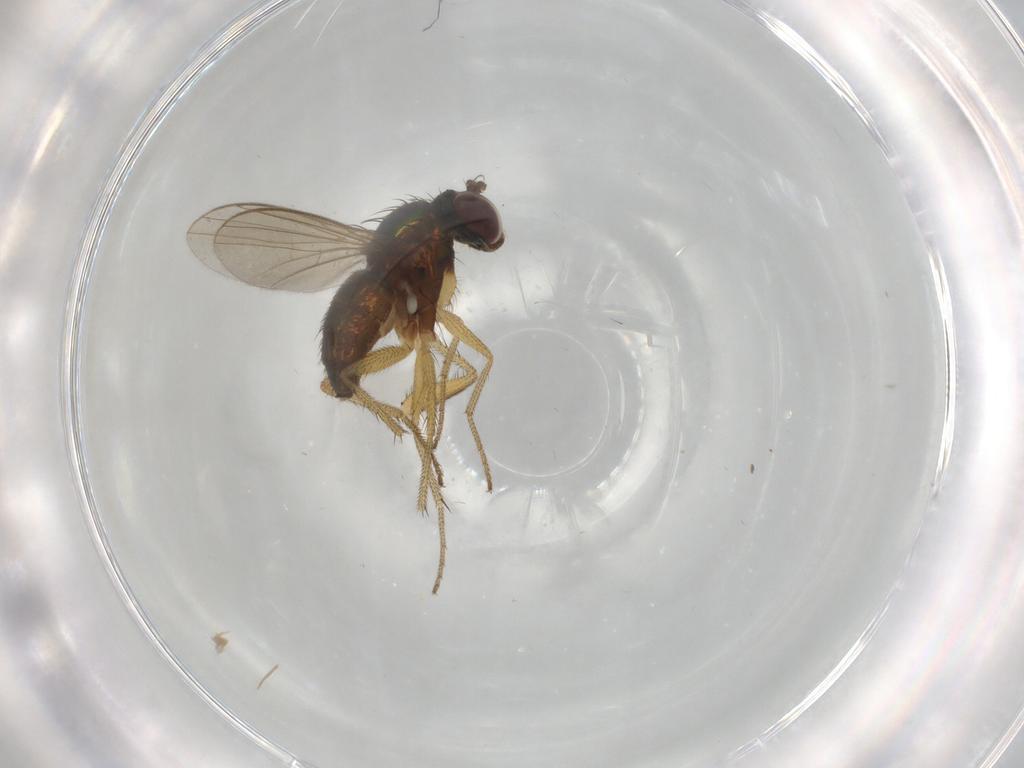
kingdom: Animalia
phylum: Arthropoda
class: Insecta
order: Diptera
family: Dolichopodidae
